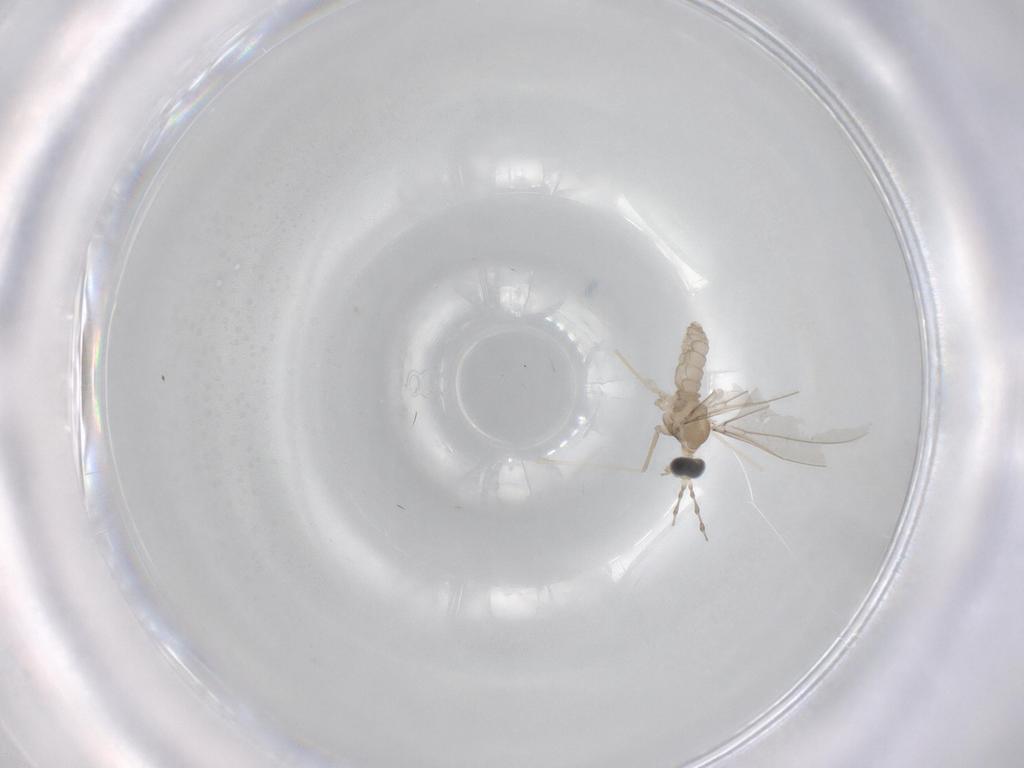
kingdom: Animalia
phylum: Arthropoda
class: Insecta
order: Diptera
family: Cecidomyiidae
